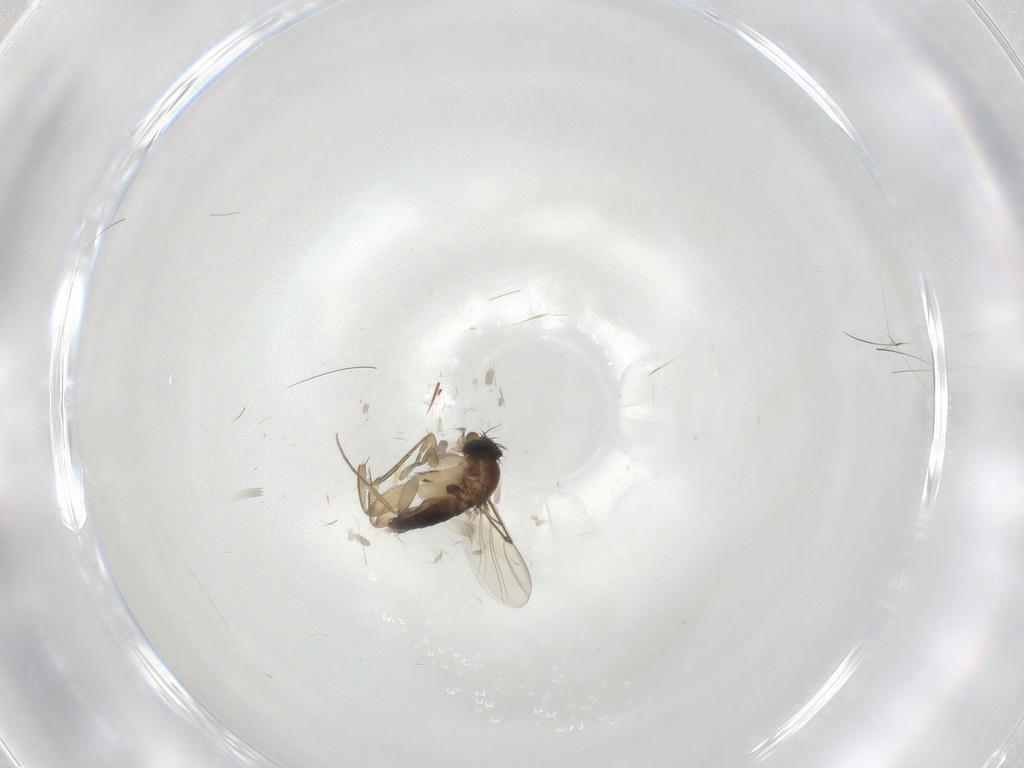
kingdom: Animalia
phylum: Arthropoda
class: Insecta
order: Diptera
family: Phoridae
